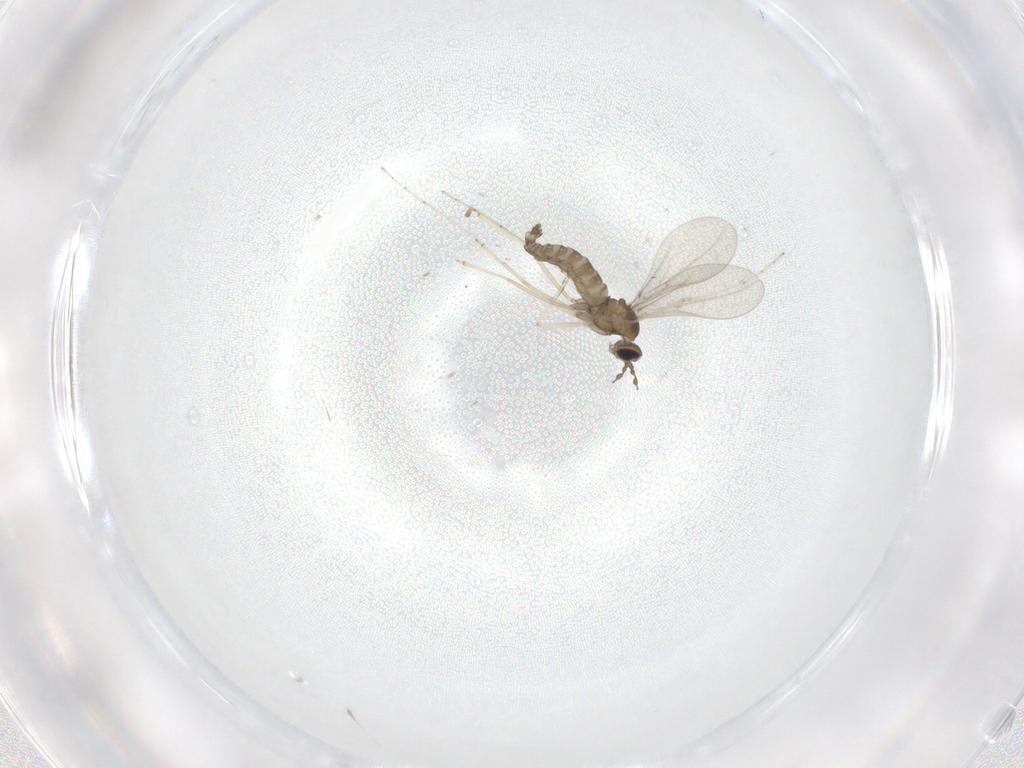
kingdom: Animalia
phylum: Arthropoda
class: Insecta
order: Diptera
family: Cecidomyiidae
